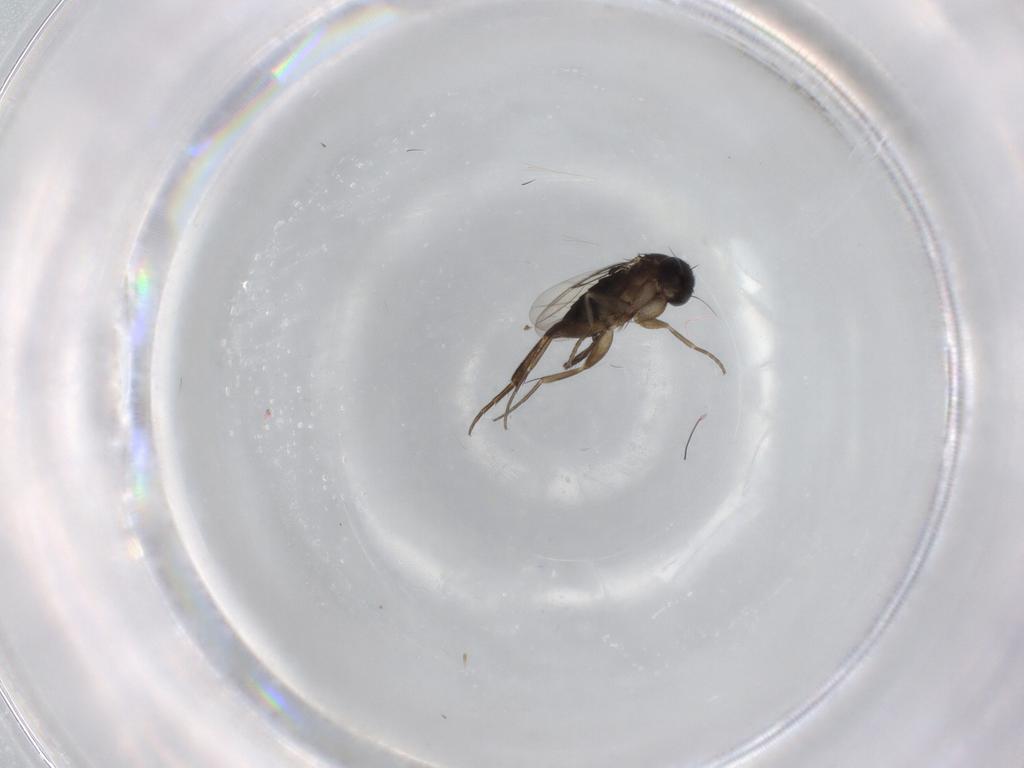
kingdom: Animalia
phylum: Arthropoda
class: Insecta
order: Diptera
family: Phoridae
